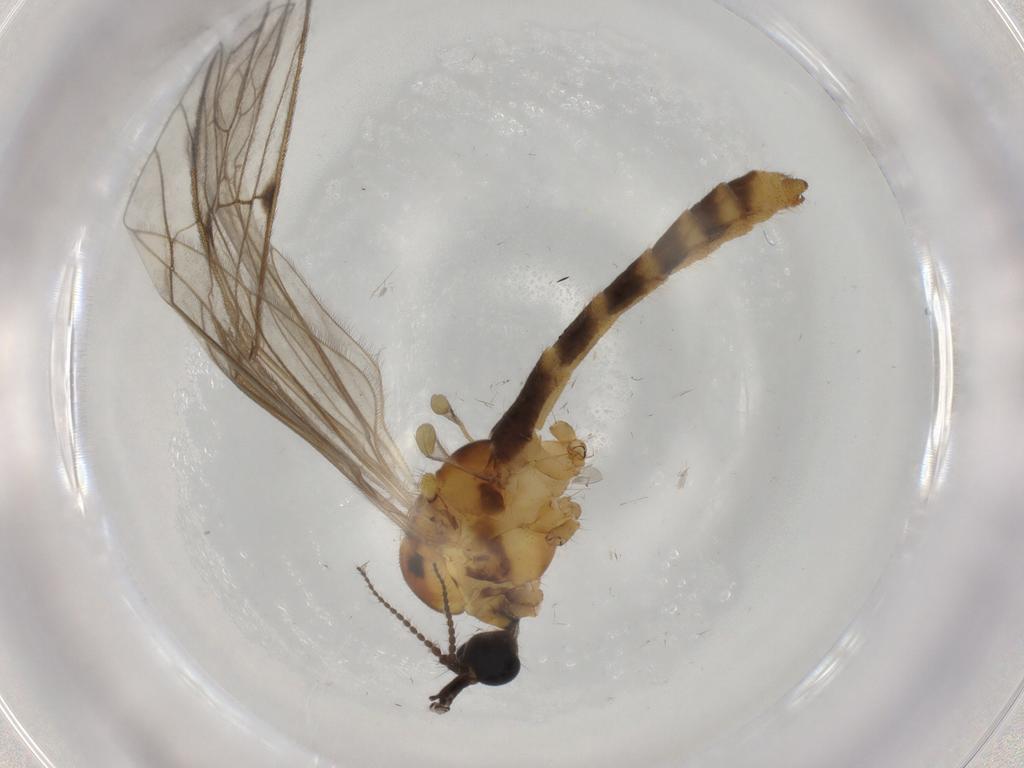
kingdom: Animalia
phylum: Arthropoda
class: Insecta
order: Diptera
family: Limoniidae
